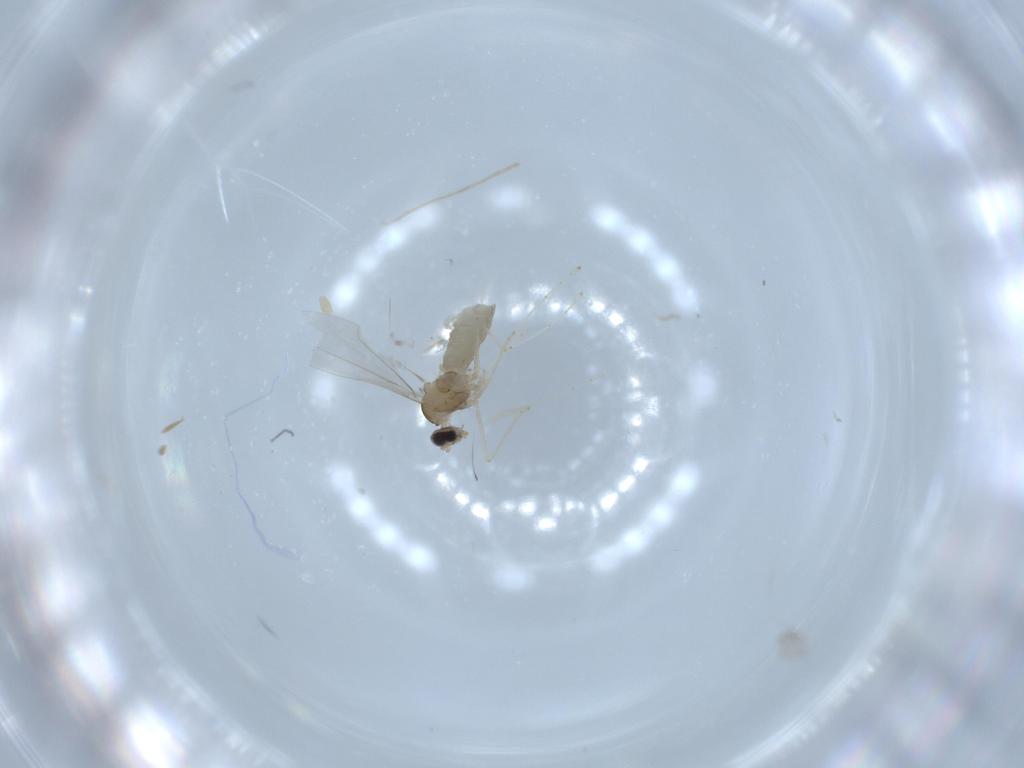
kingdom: Animalia
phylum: Arthropoda
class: Insecta
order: Diptera
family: Cecidomyiidae
